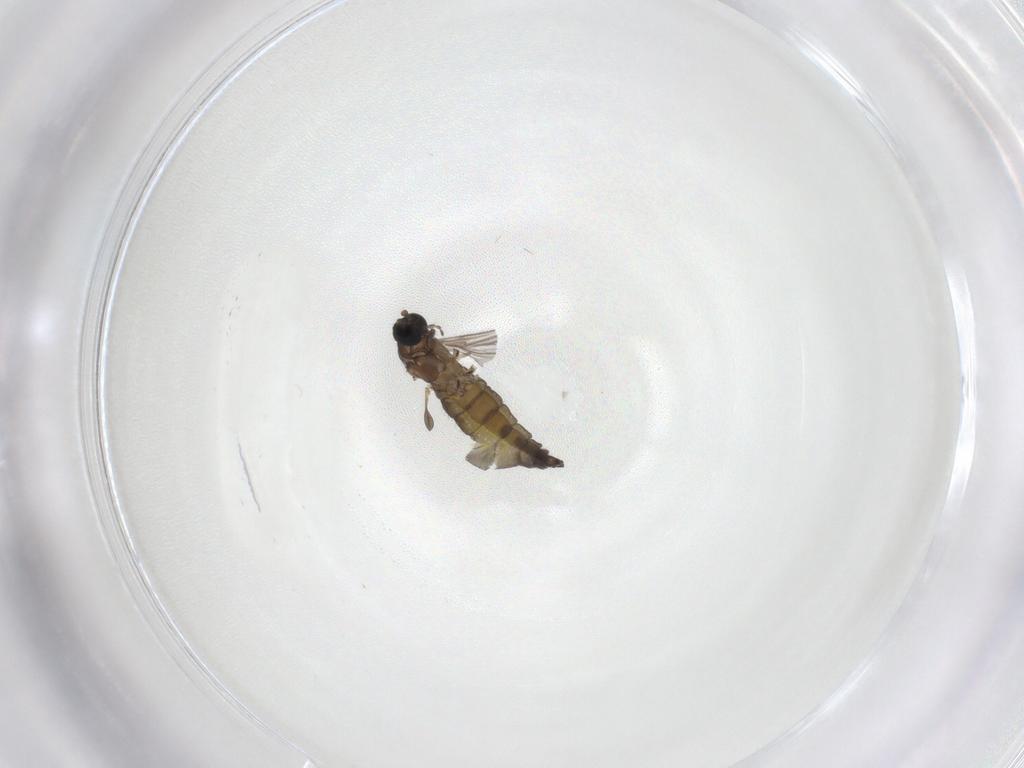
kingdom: Animalia
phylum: Arthropoda
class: Insecta
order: Diptera
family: Sciaridae
